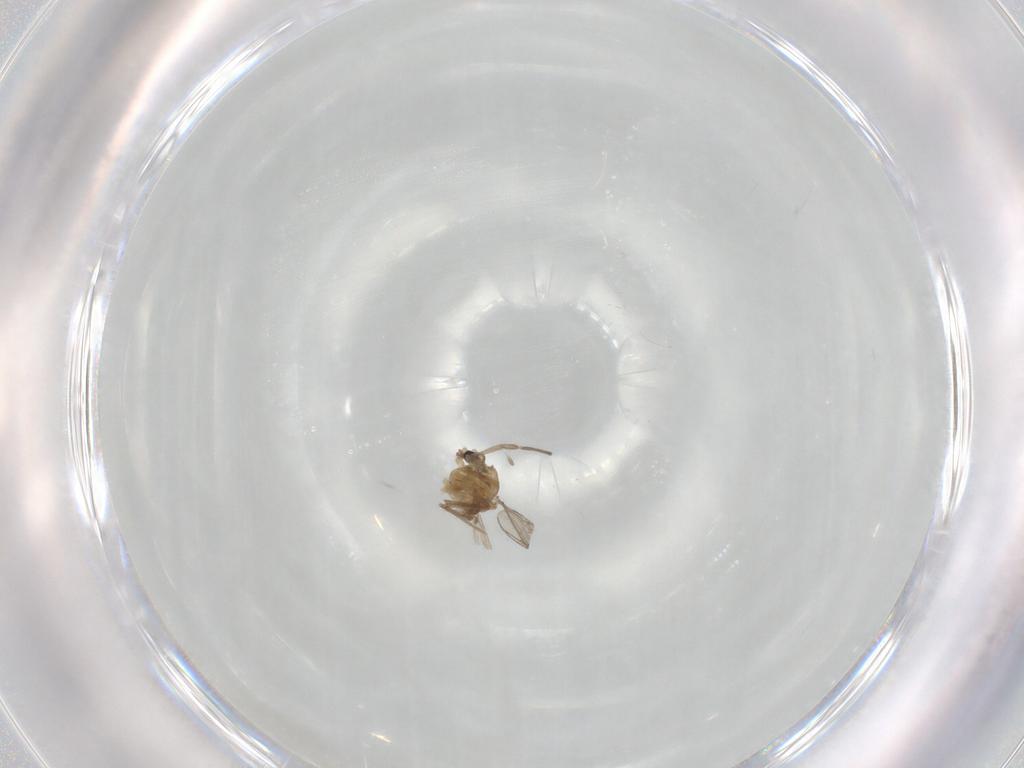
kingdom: Animalia
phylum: Arthropoda
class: Insecta
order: Diptera
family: Chironomidae
